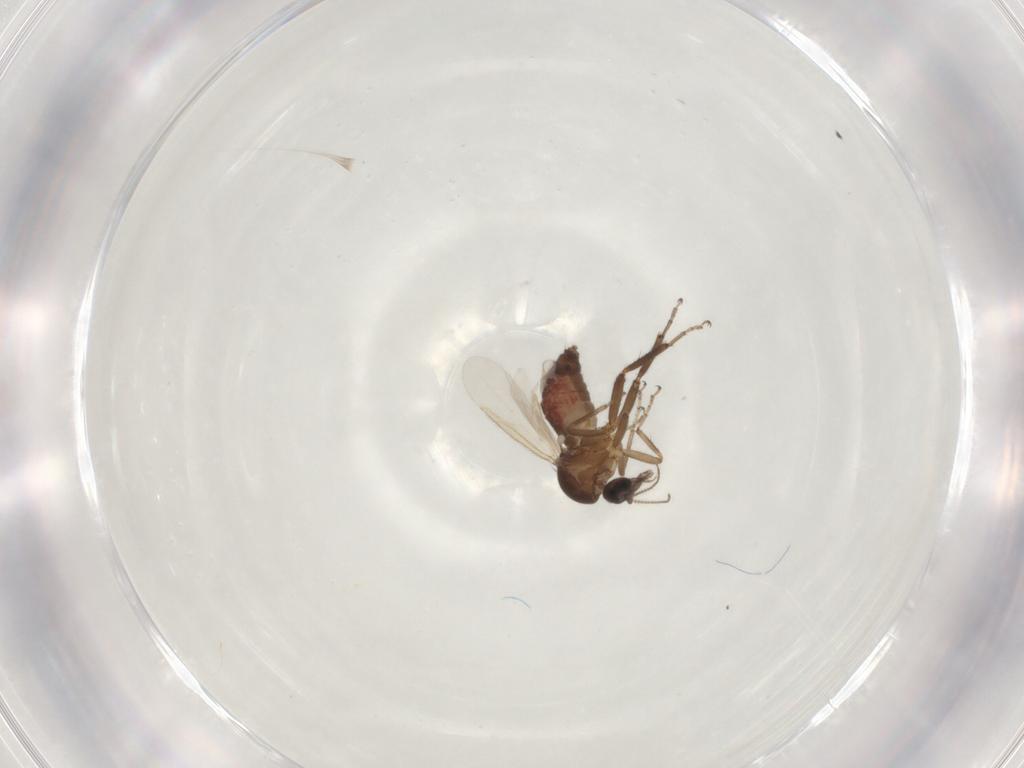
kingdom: Animalia
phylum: Arthropoda
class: Insecta
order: Diptera
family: Ceratopogonidae
